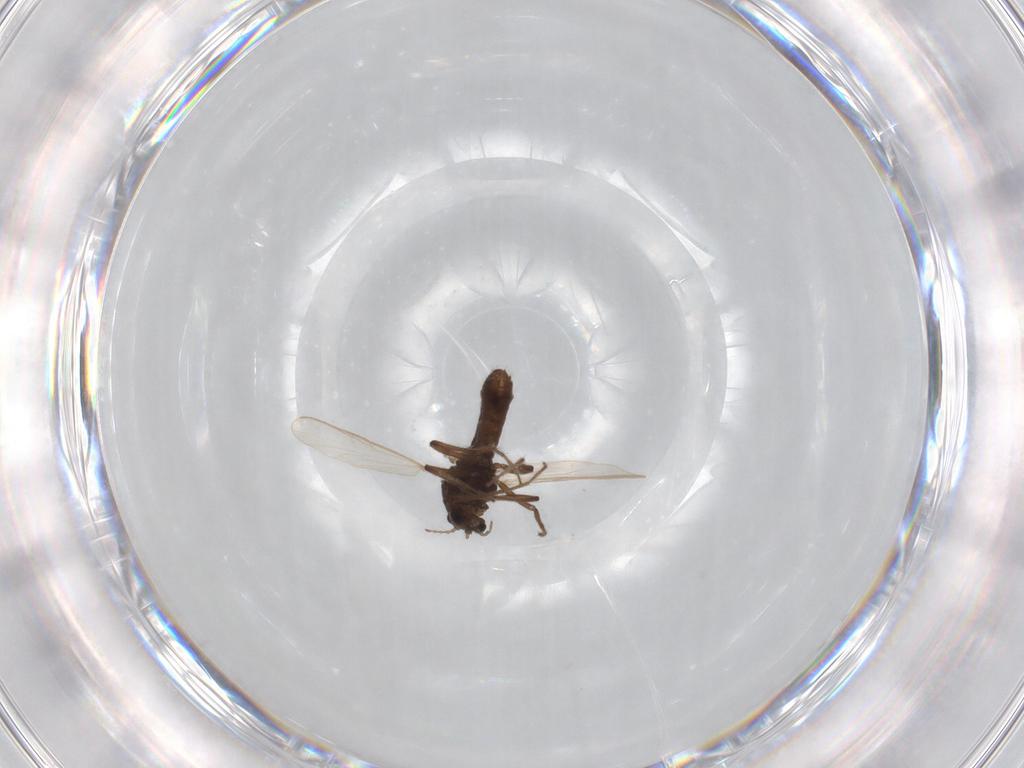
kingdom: Animalia
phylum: Arthropoda
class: Insecta
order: Diptera
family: Chironomidae
